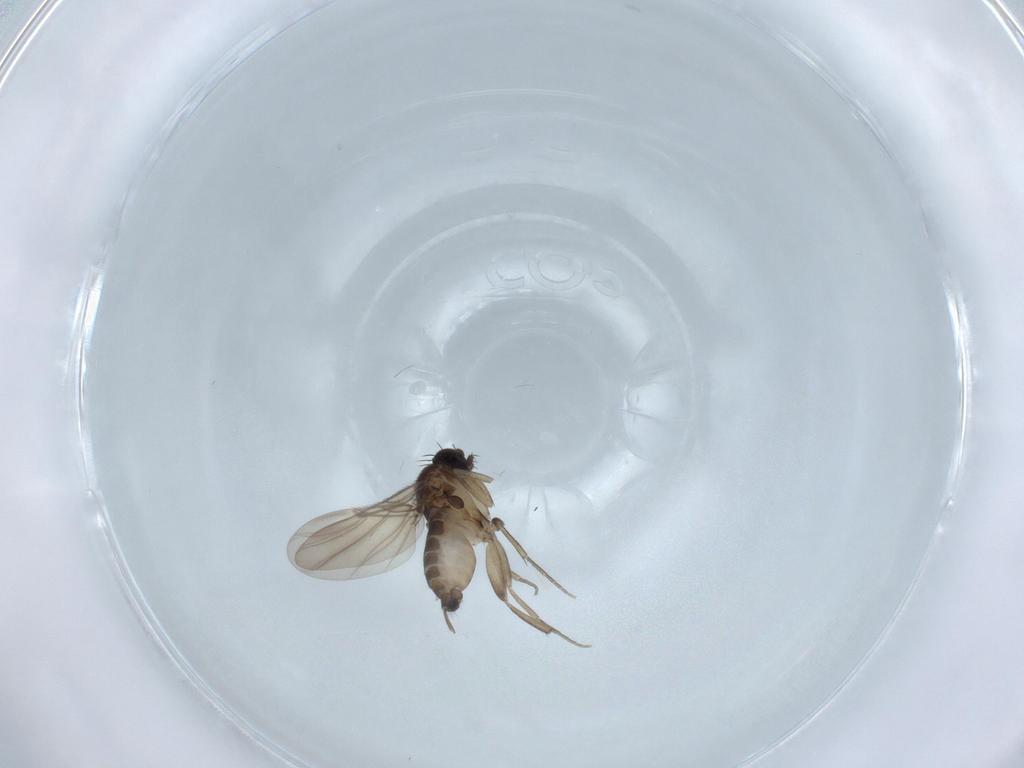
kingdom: Animalia
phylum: Arthropoda
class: Insecta
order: Diptera
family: Phoridae
